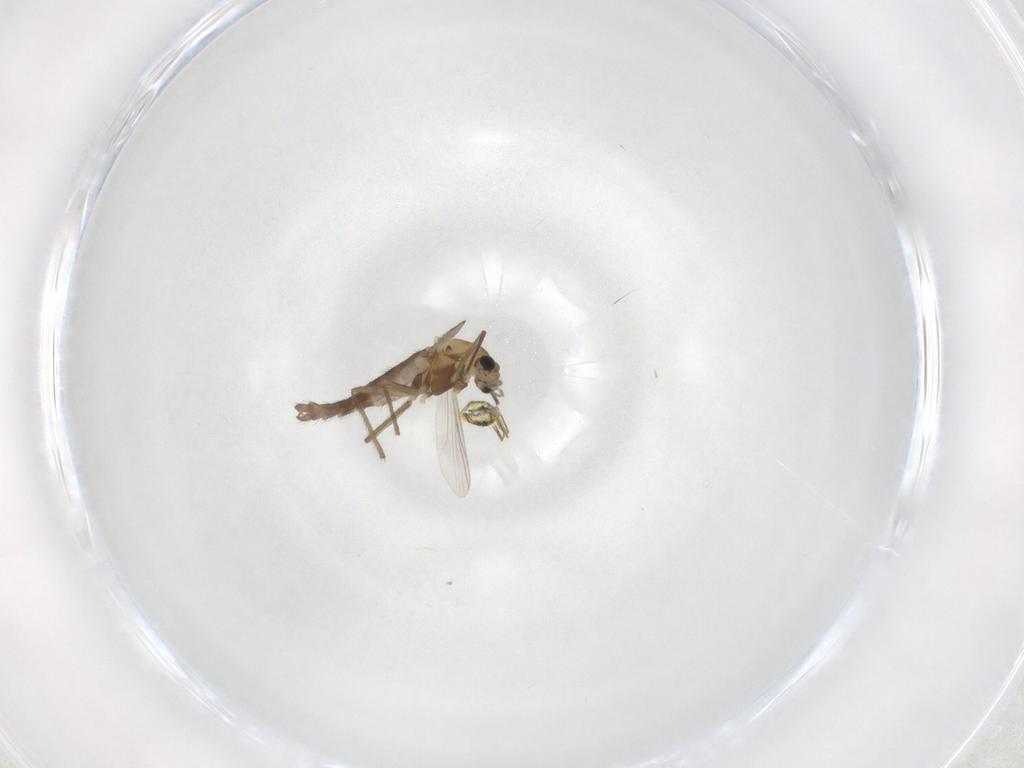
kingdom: Animalia
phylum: Arthropoda
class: Insecta
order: Diptera
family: Chironomidae
